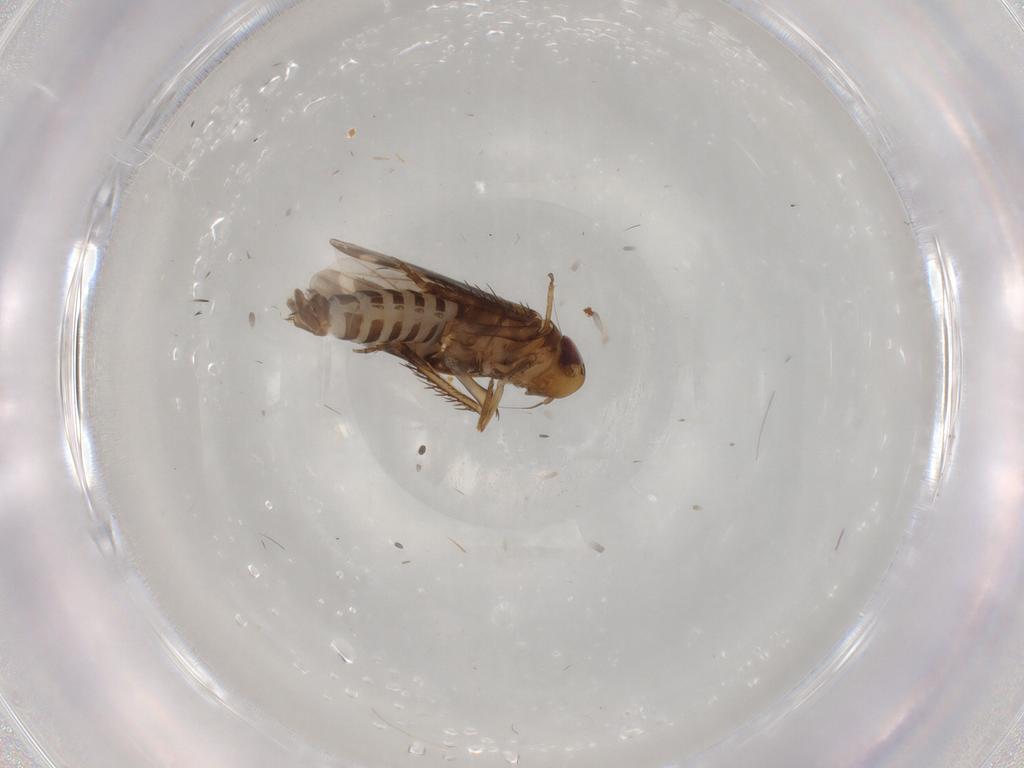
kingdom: Animalia
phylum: Arthropoda
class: Insecta
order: Hemiptera
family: Cicadellidae
